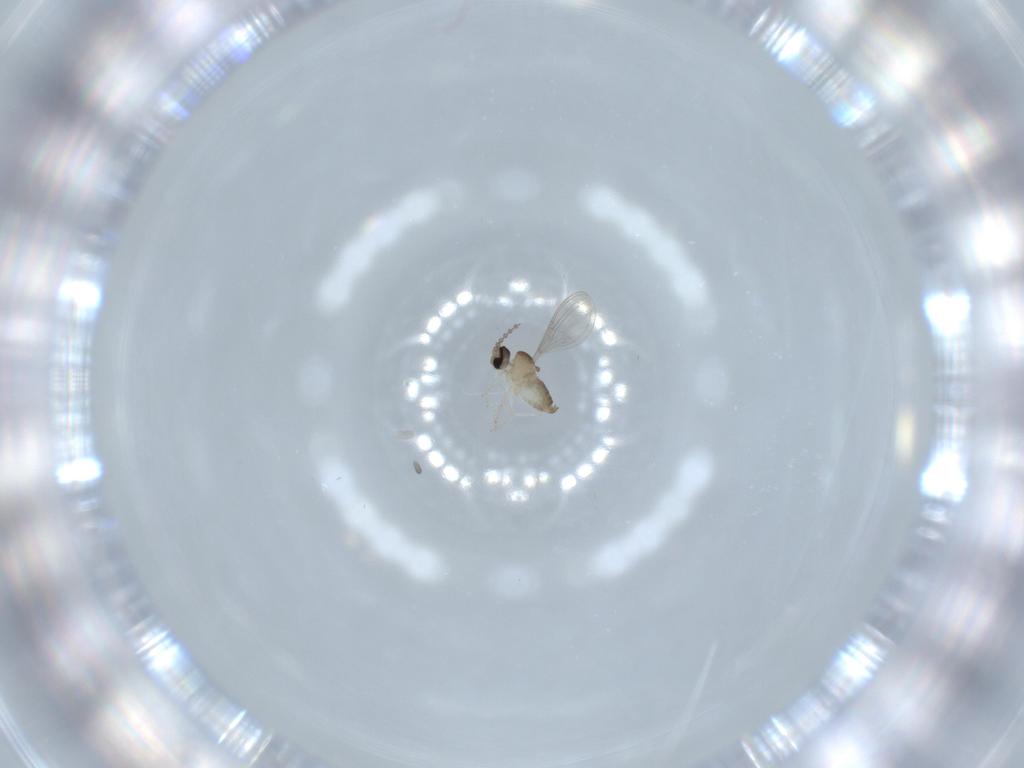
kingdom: Animalia
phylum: Arthropoda
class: Insecta
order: Diptera
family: Cecidomyiidae
